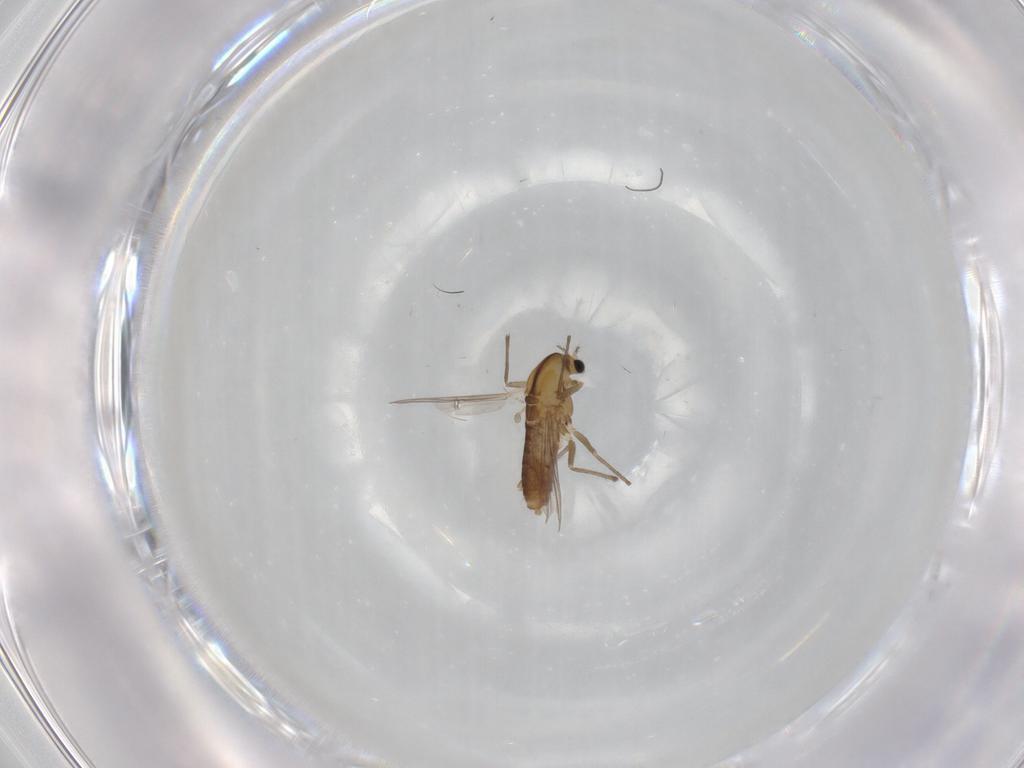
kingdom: Animalia
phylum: Arthropoda
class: Insecta
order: Diptera
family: Chironomidae
